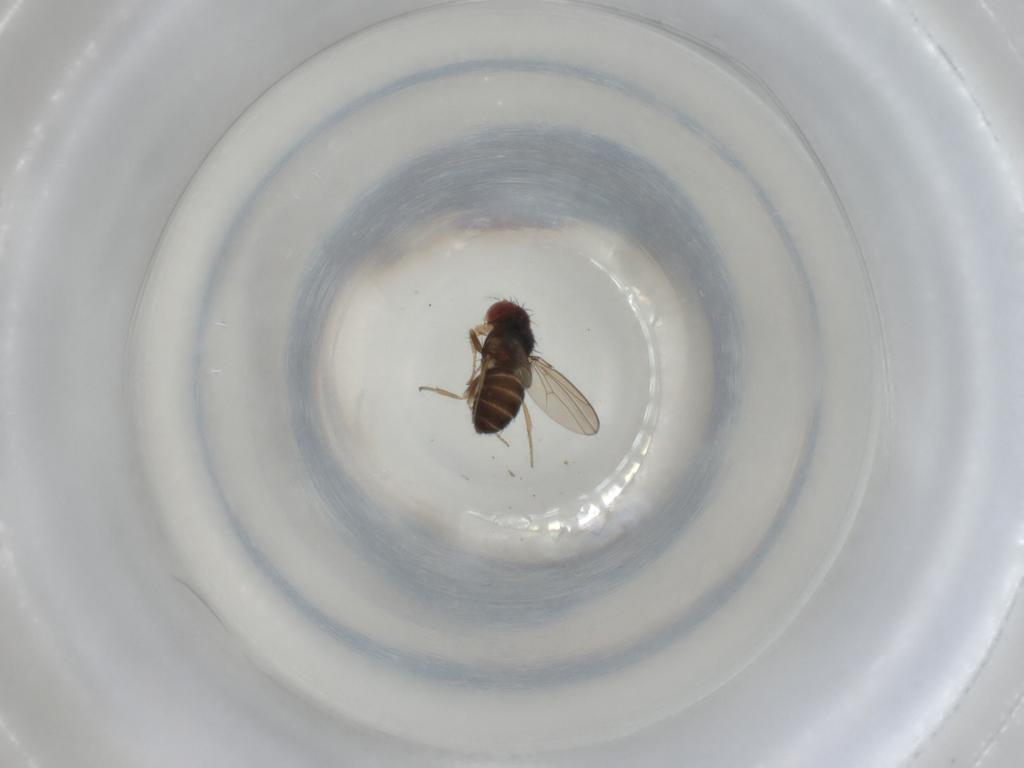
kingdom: Animalia
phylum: Arthropoda
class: Insecta
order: Diptera
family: Drosophilidae
